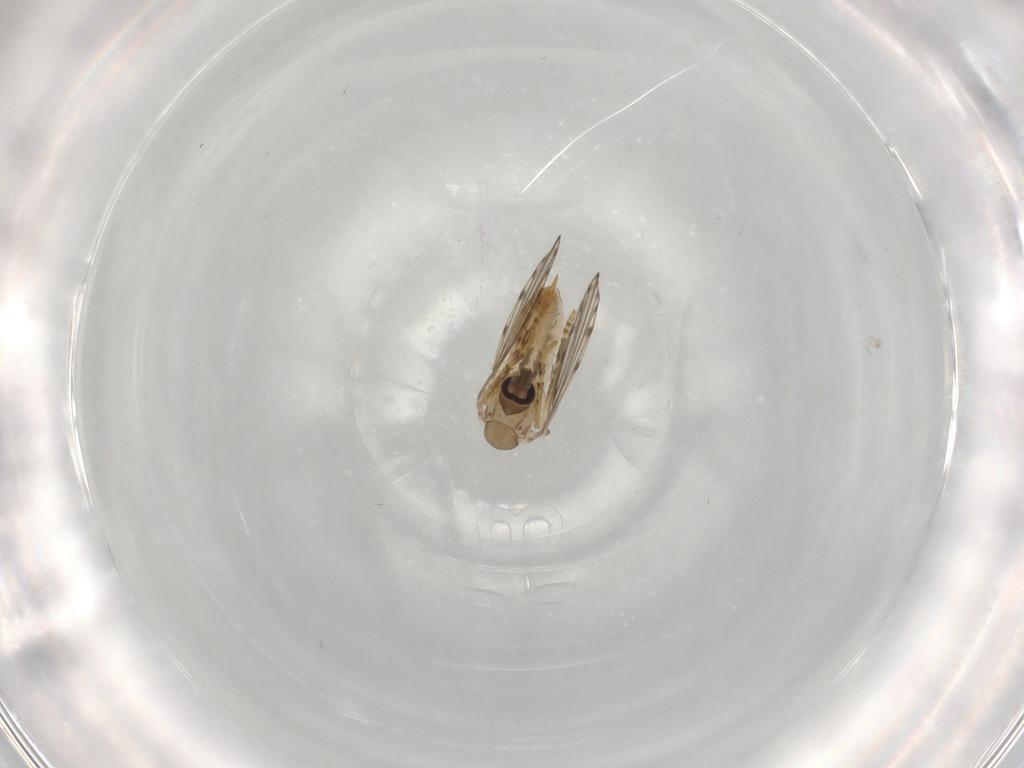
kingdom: Animalia
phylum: Arthropoda
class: Insecta
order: Diptera
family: Psychodidae
